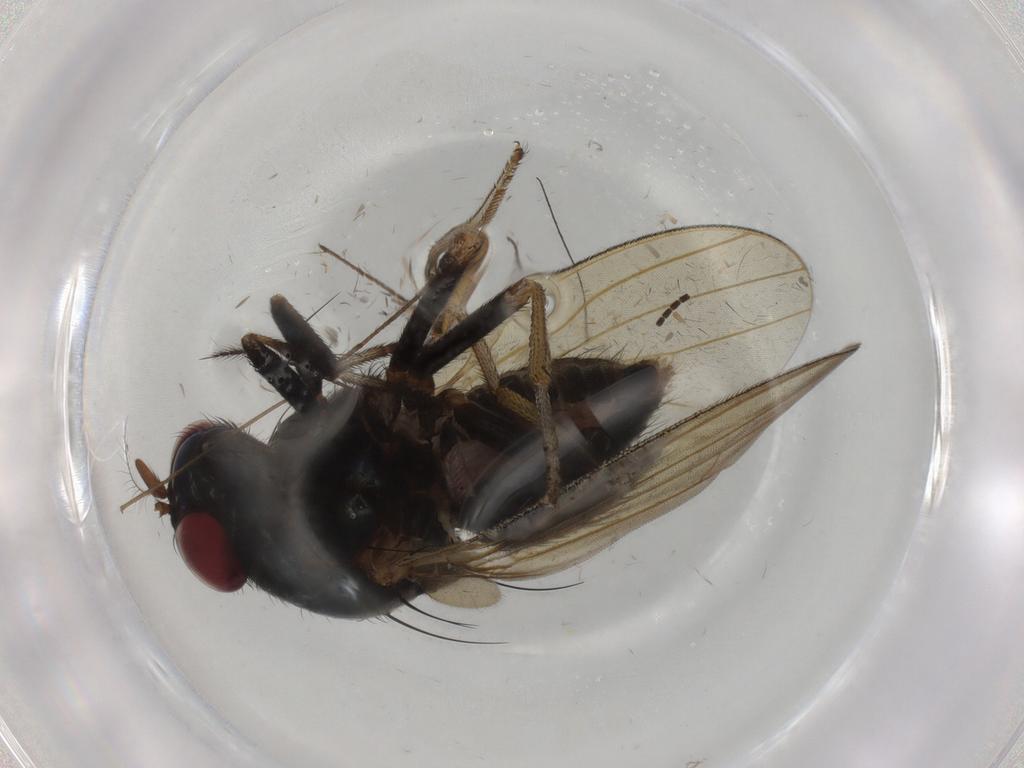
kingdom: Animalia
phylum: Arthropoda
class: Insecta
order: Diptera
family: Limoniidae
